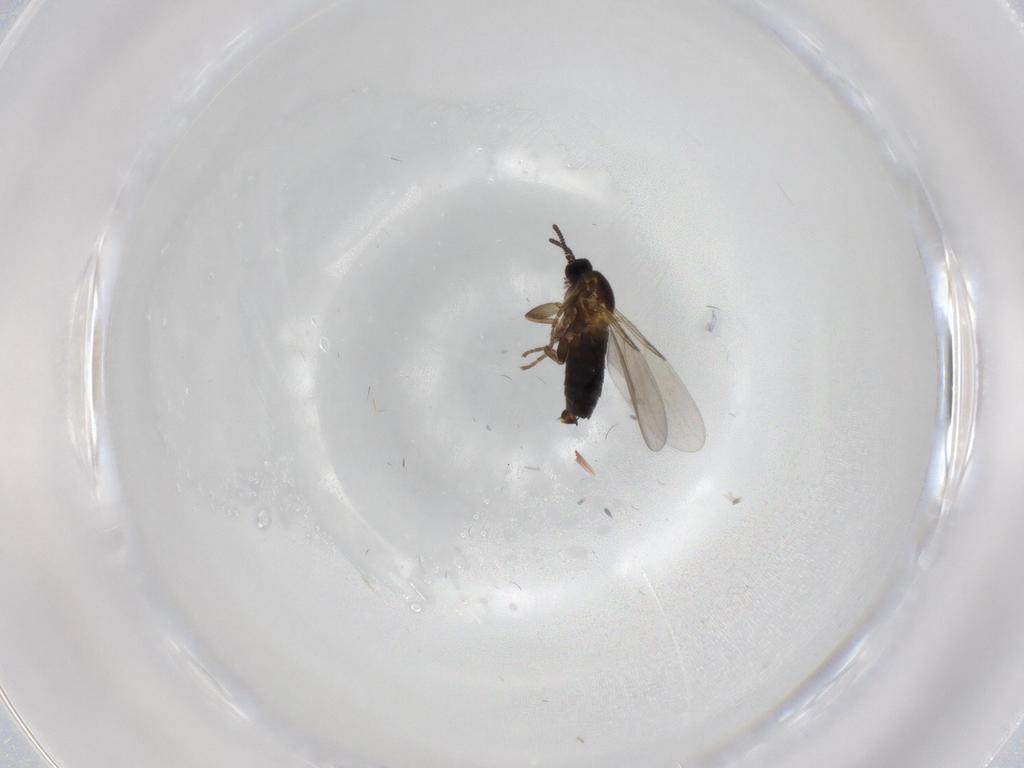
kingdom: Animalia
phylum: Arthropoda
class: Insecta
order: Diptera
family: Scatopsidae
